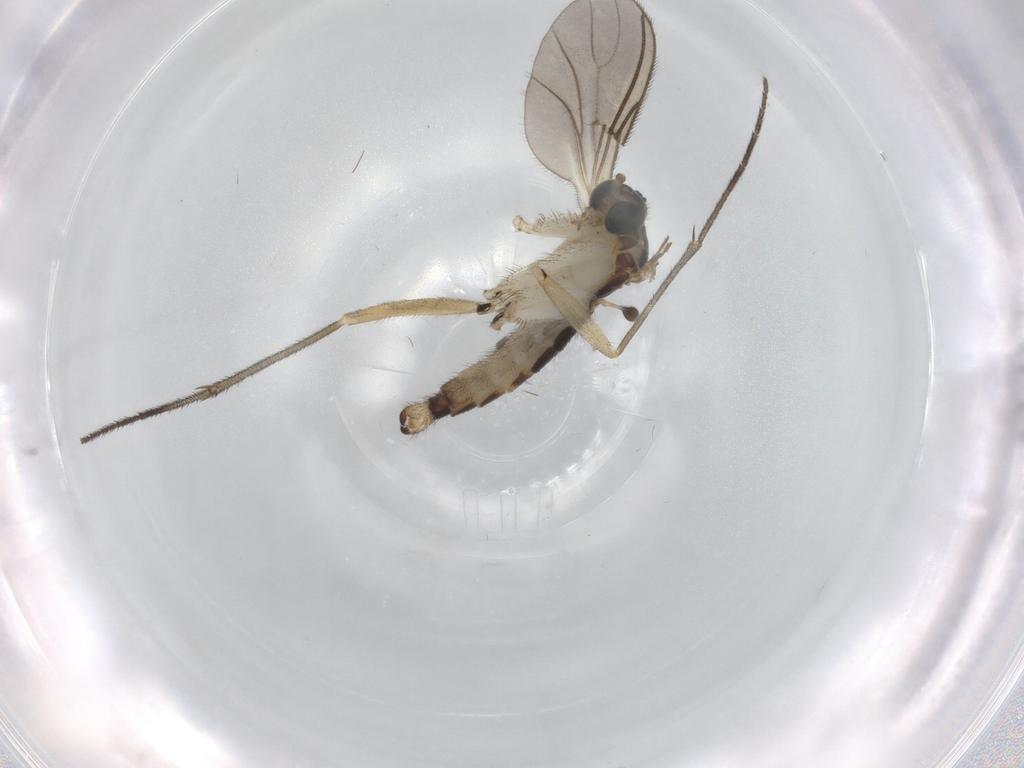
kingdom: Animalia
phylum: Arthropoda
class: Insecta
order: Diptera
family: Sciaridae
